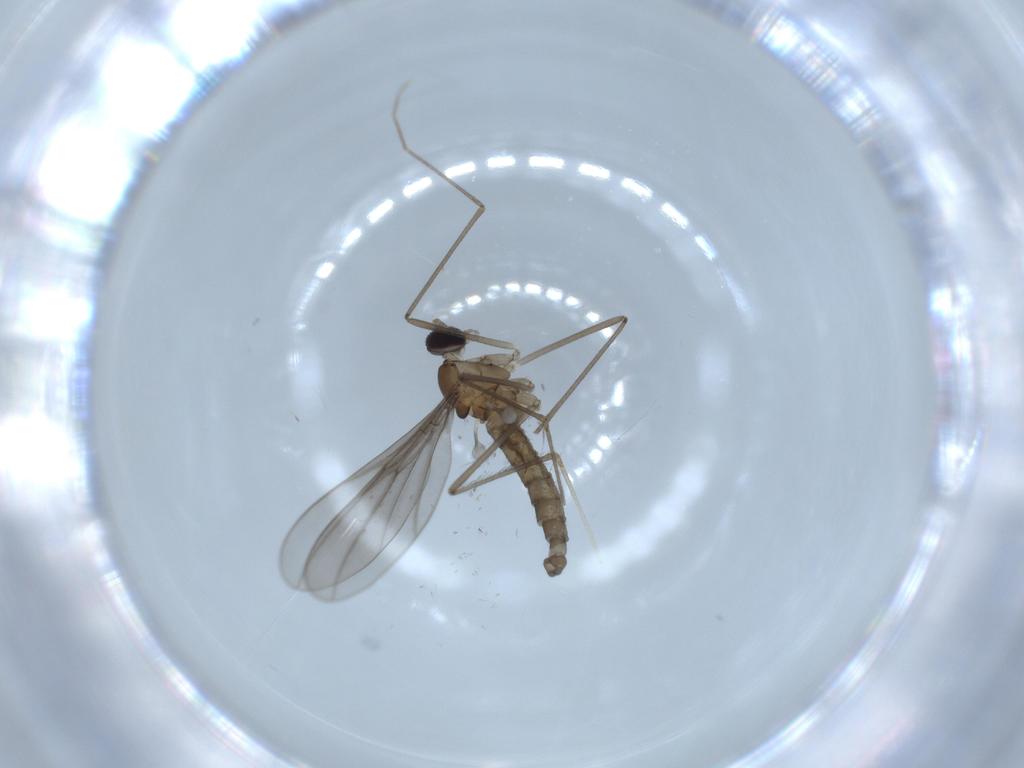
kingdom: Animalia
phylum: Arthropoda
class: Insecta
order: Diptera
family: Cecidomyiidae
